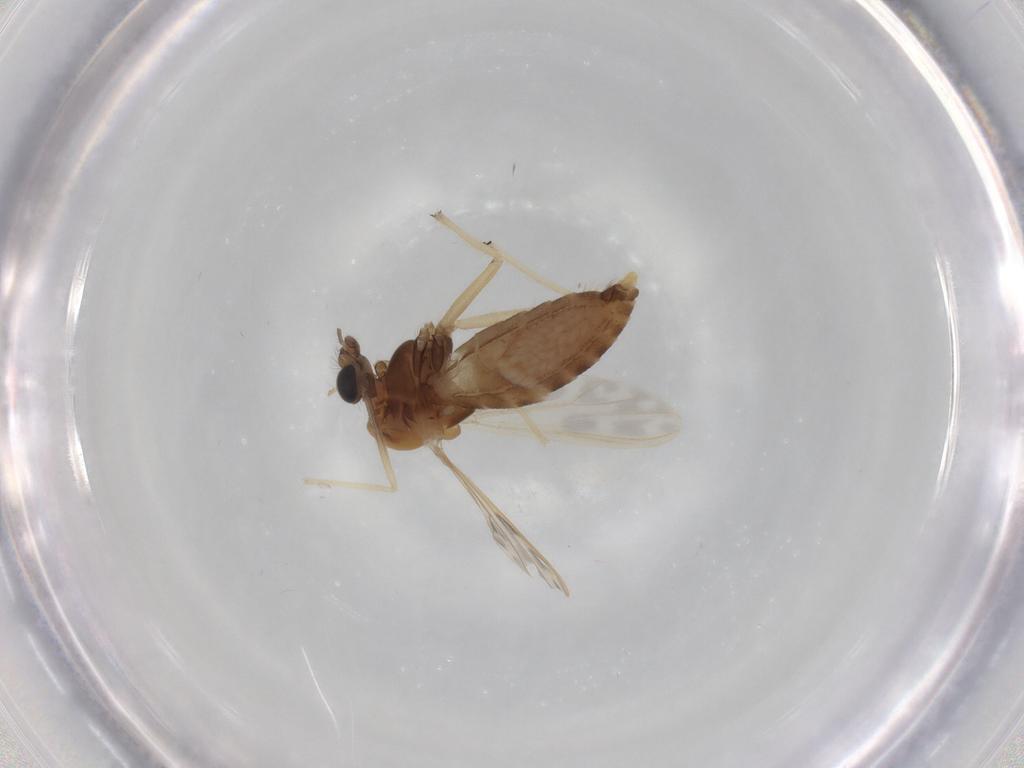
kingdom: Animalia
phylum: Arthropoda
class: Insecta
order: Diptera
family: Chironomidae
